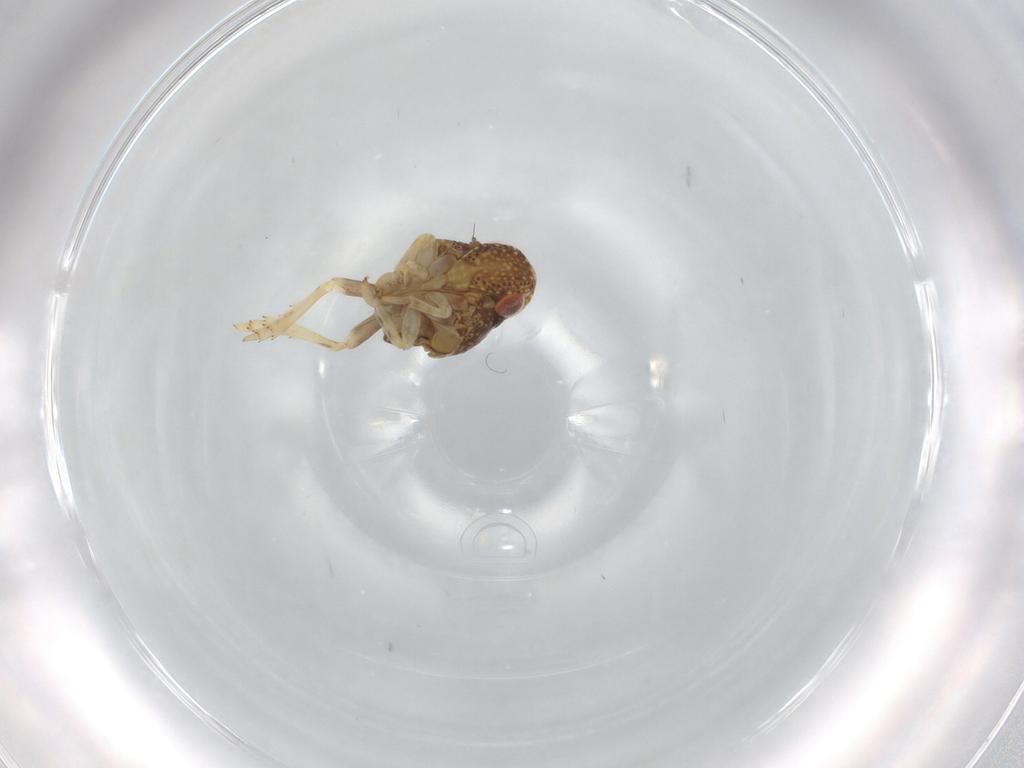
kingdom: Animalia
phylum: Arthropoda
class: Insecta
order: Hemiptera
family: Acanaloniidae
